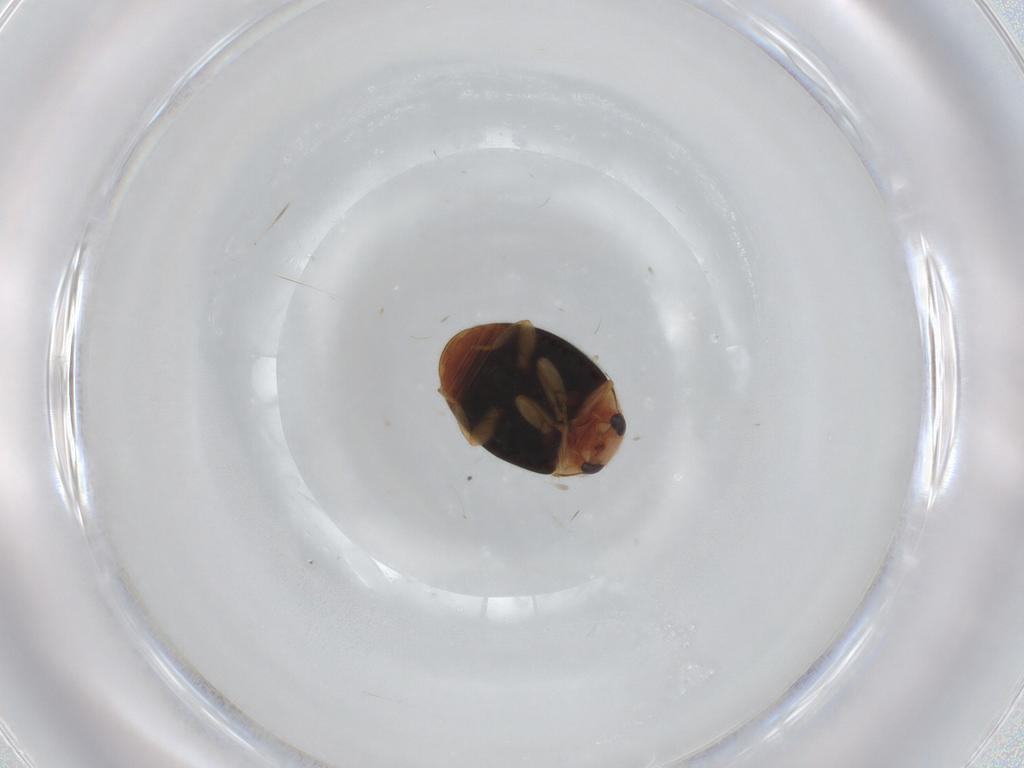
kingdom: Animalia
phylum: Arthropoda
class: Insecta
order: Coleoptera
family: Coccinellidae
